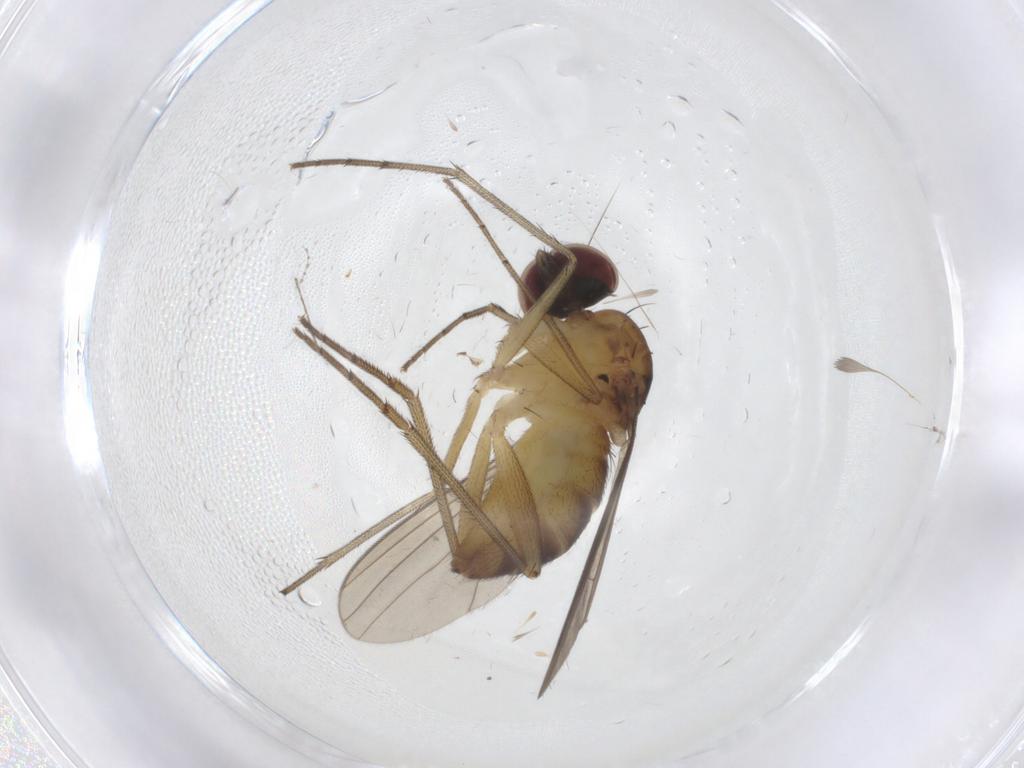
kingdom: Animalia
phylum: Arthropoda
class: Insecta
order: Diptera
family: Dolichopodidae
